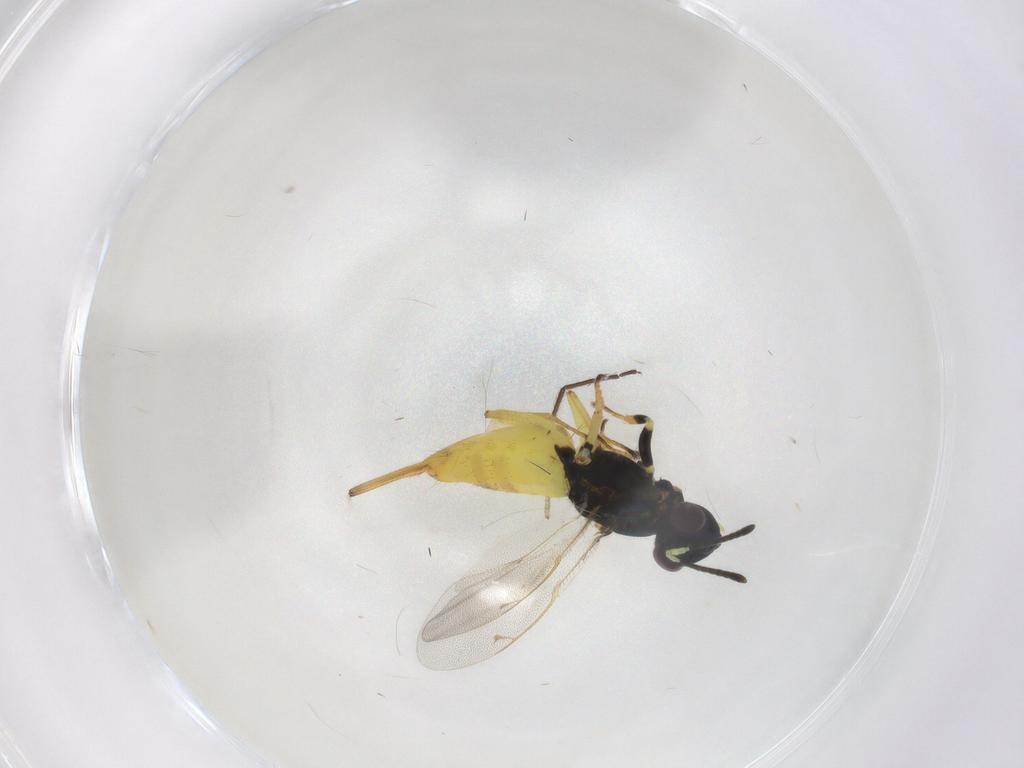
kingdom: Animalia
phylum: Arthropoda
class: Insecta
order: Hymenoptera
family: Eupelmidae
